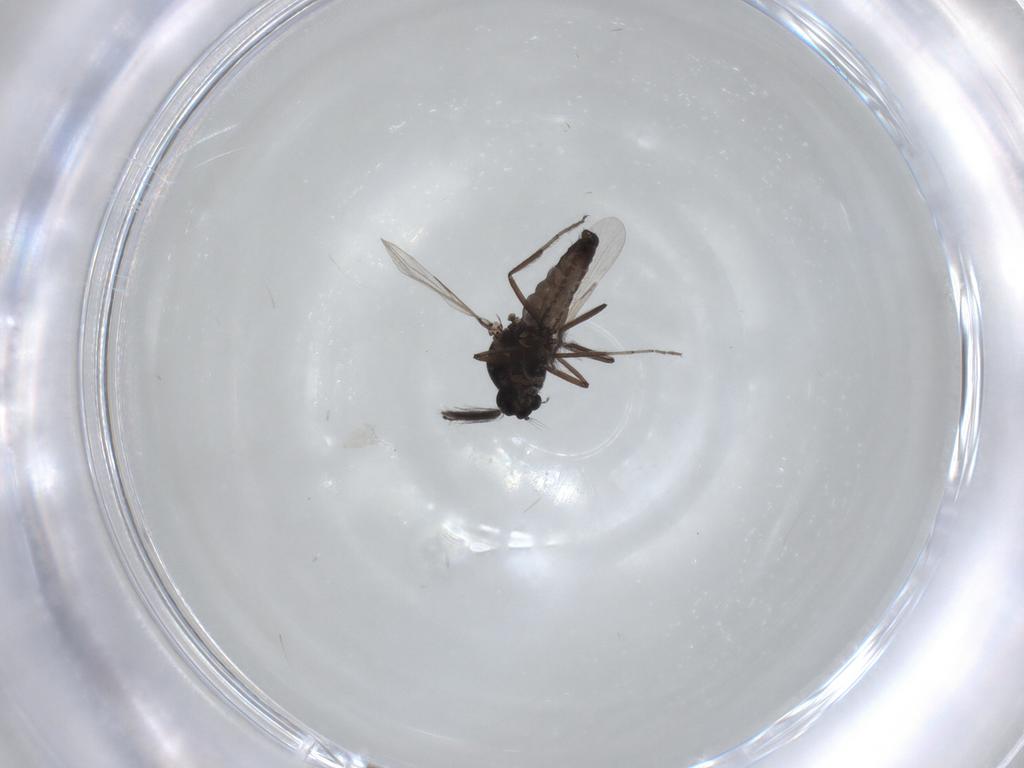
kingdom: Animalia
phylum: Arthropoda
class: Insecta
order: Diptera
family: Ceratopogonidae
